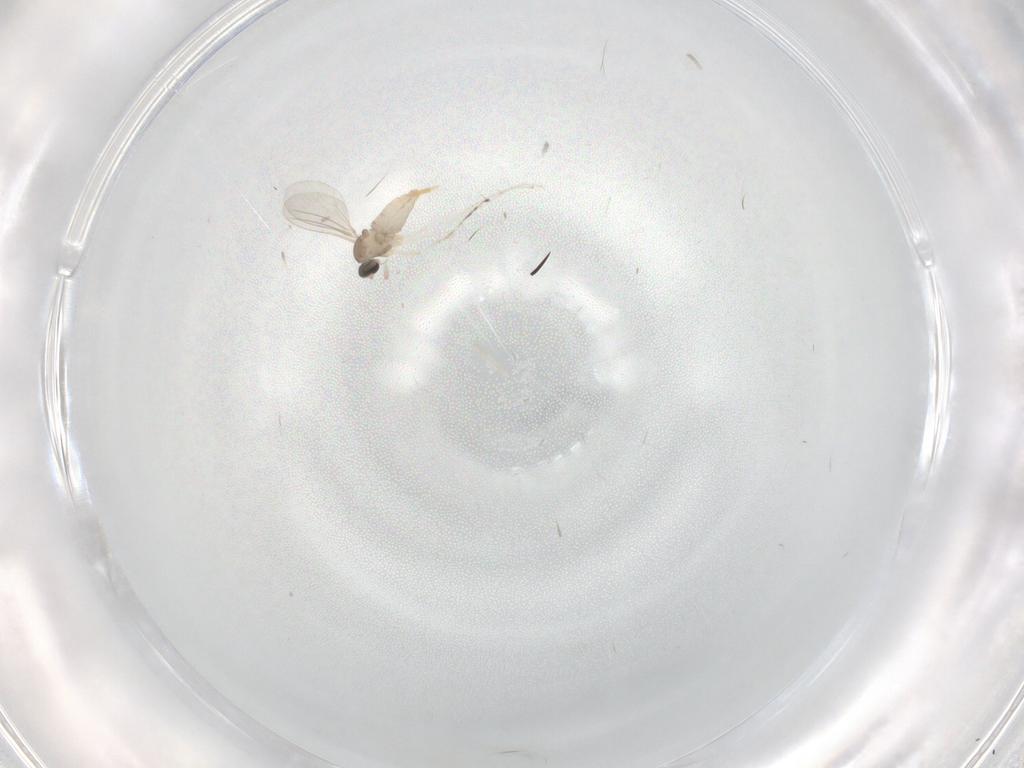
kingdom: Animalia
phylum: Arthropoda
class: Insecta
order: Diptera
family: Cecidomyiidae
